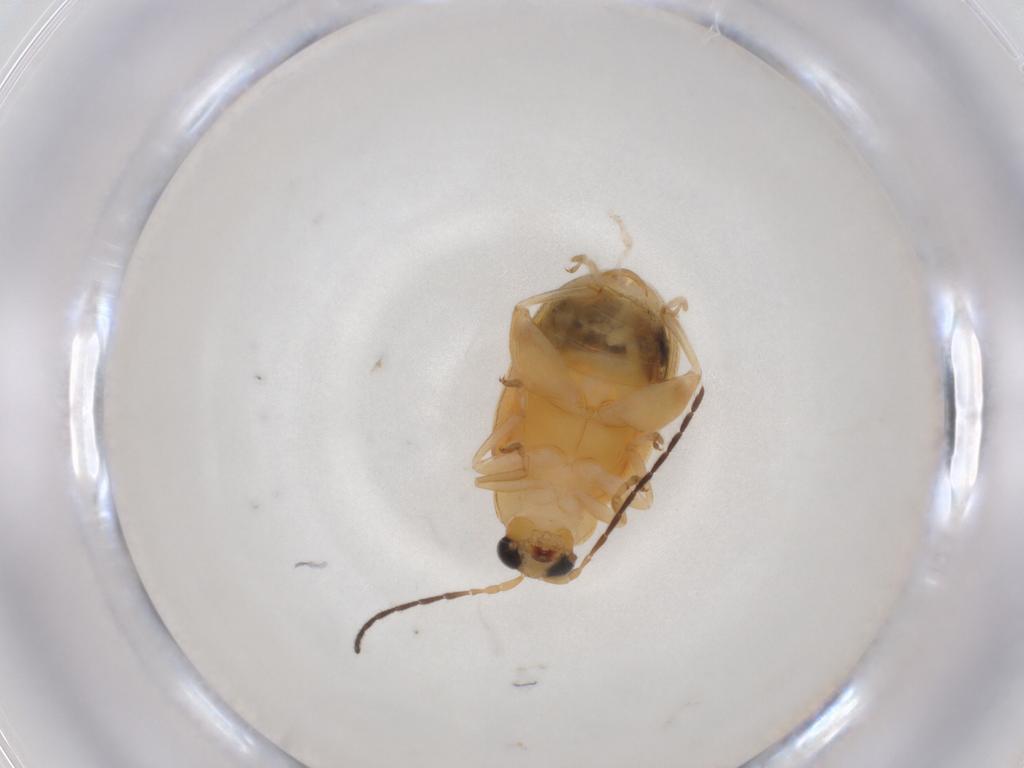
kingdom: Animalia
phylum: Arthropoda
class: Insecta
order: Coleoptera
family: Chrysomelidae
